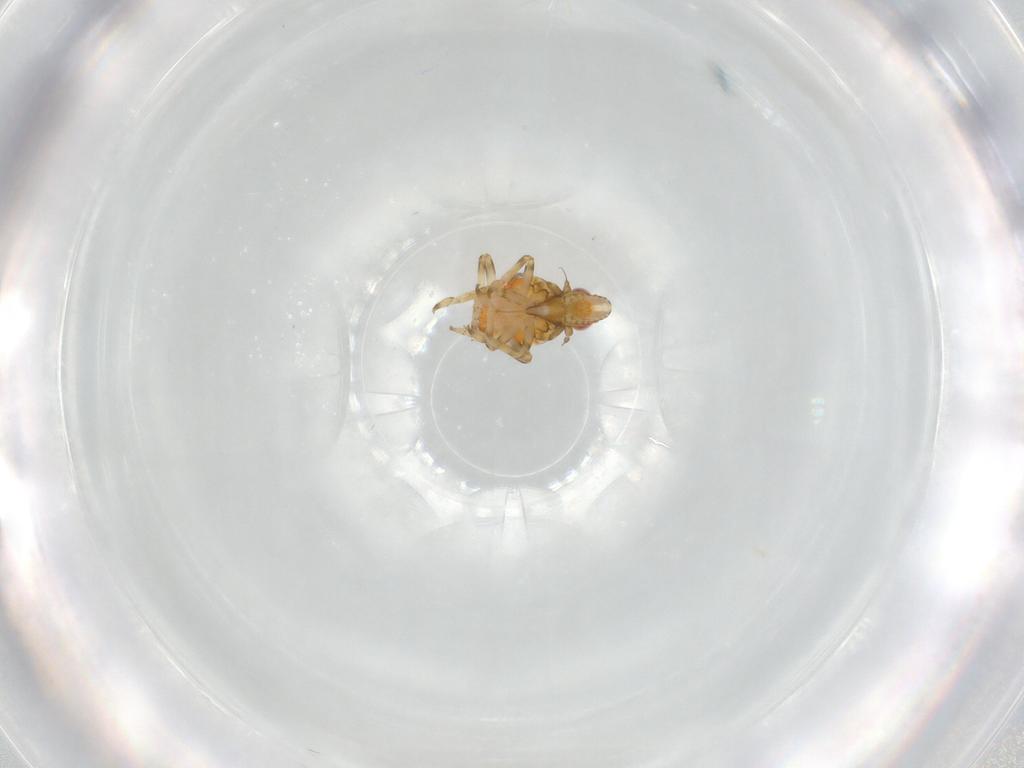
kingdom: Animalia
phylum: Arthropoda
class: Insecta
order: Hemiptera
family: Tropiduchidae
